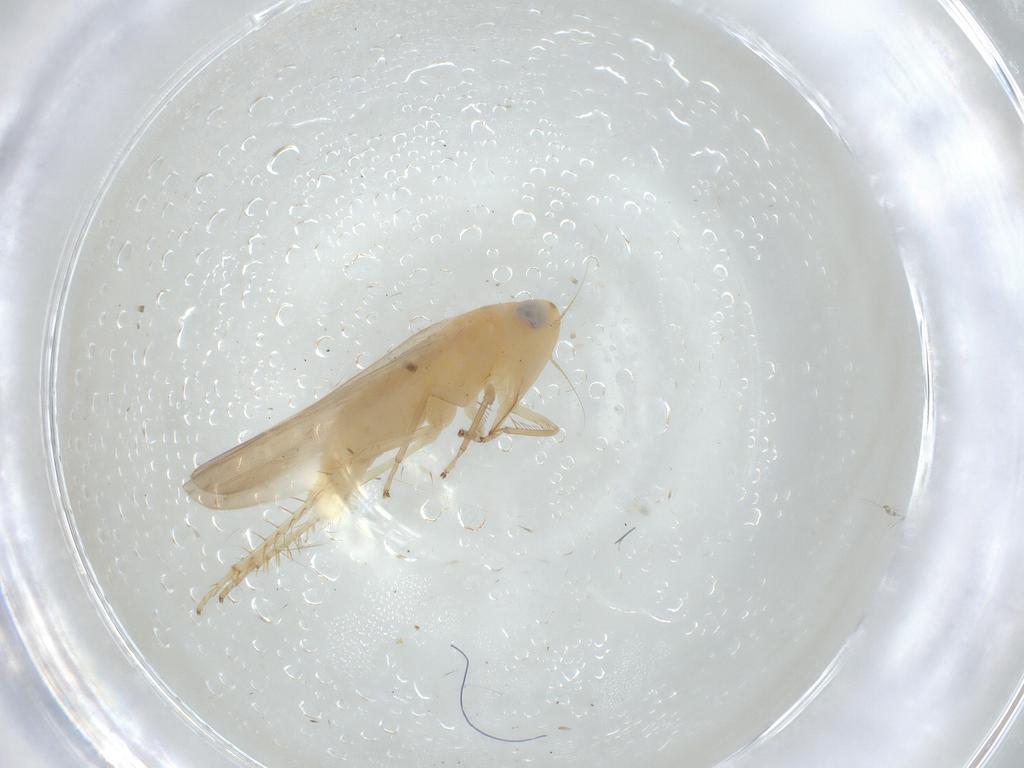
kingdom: Animalia
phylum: Arthropoda
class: Insecta
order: Hemiptera
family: Cicadellidae
